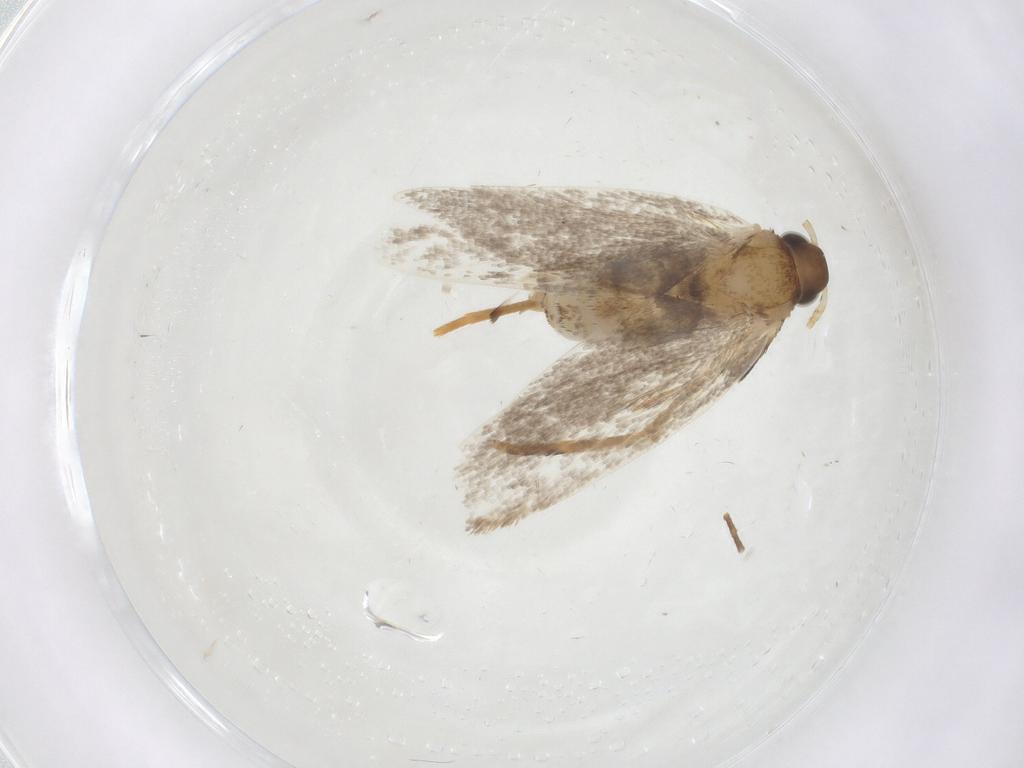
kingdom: Animalia
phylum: Arthropoda
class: Insecta
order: Lepidoptera
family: Oecophoridae
